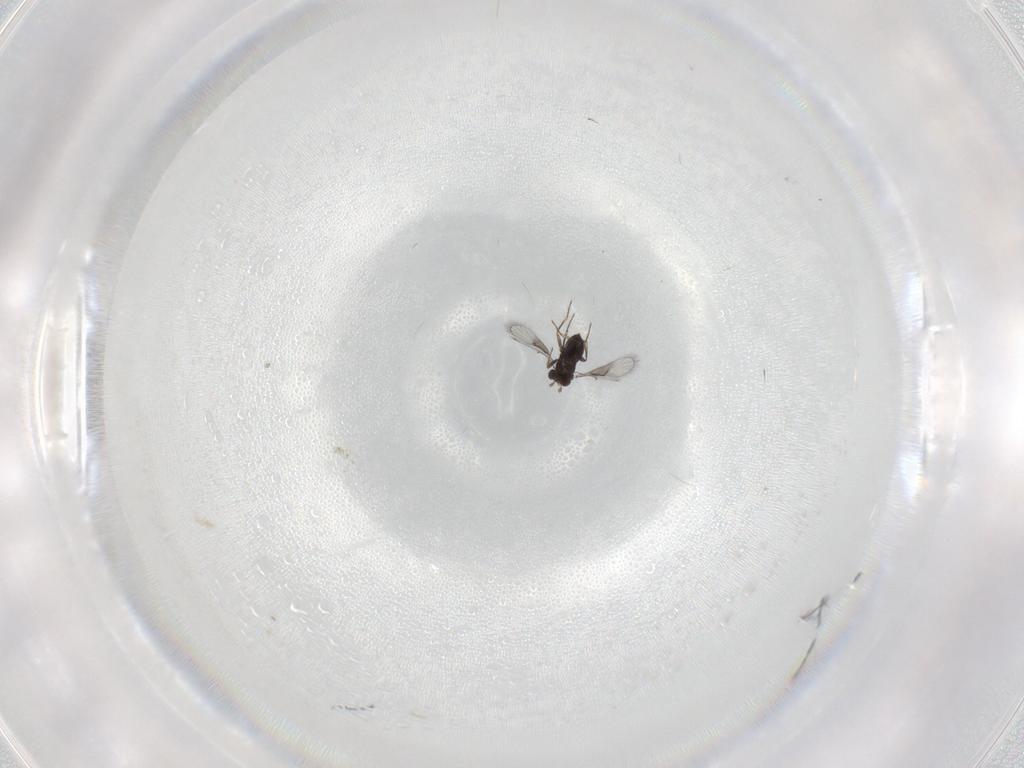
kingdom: Animalia
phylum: Arthropoda
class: Insecta
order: Hymenoptera
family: Trichogrammatidae
